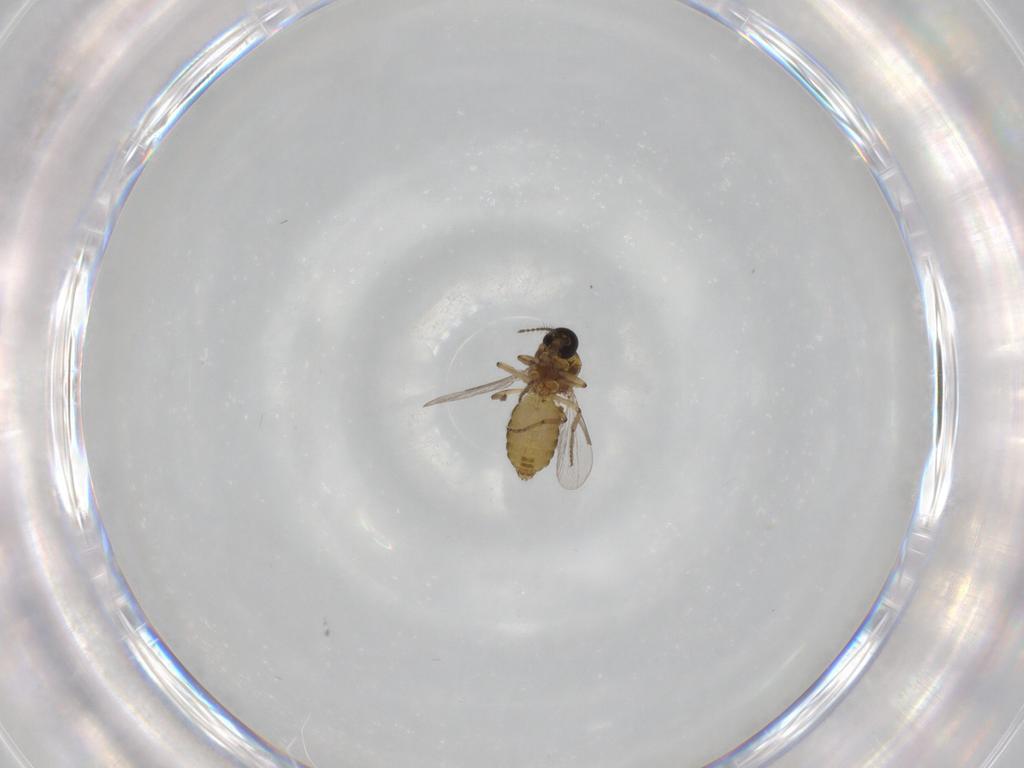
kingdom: Animalia
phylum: Arthropoda
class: Insecta
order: Diptera
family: Ceratopogonidae
